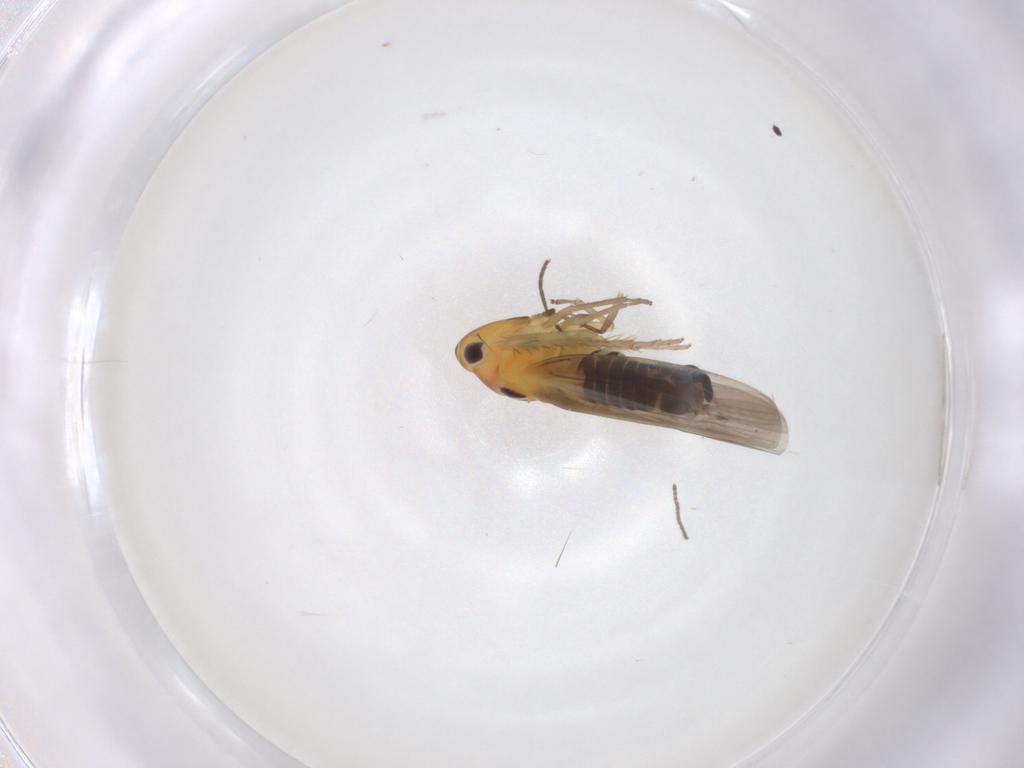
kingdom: Animalia
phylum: Arthropoda
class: Insecta
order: Hemiptera
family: Cicadellidae
